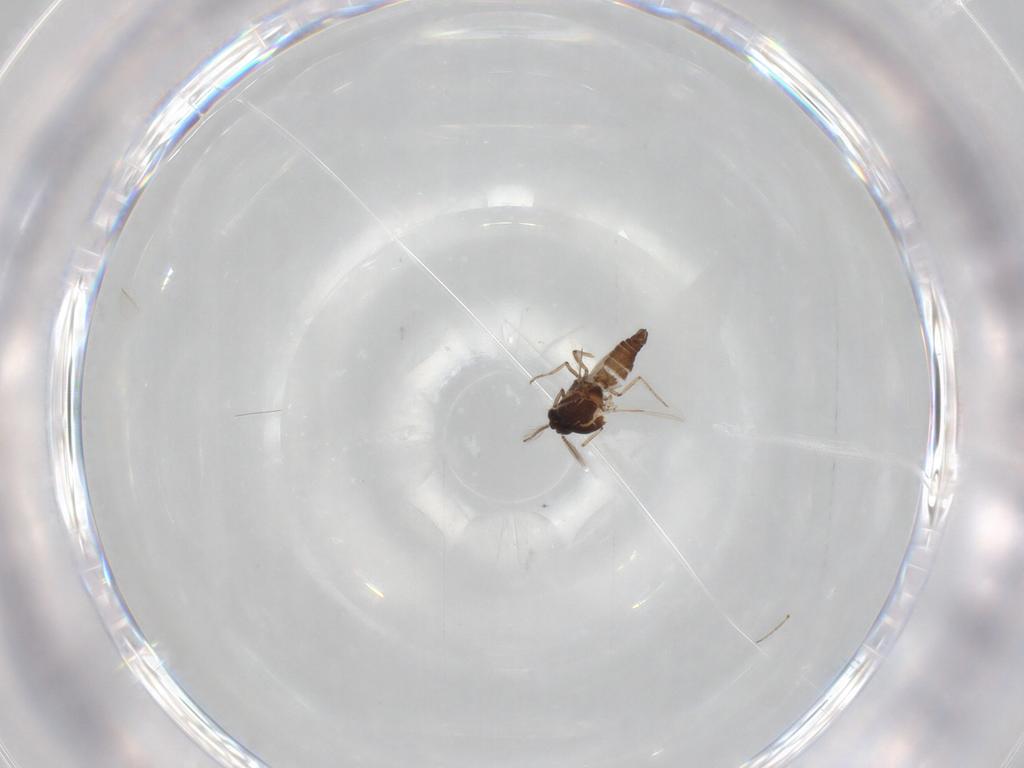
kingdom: Animalia
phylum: Arthropoda
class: Insecta
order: Diptera
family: Ceratopogonidae
